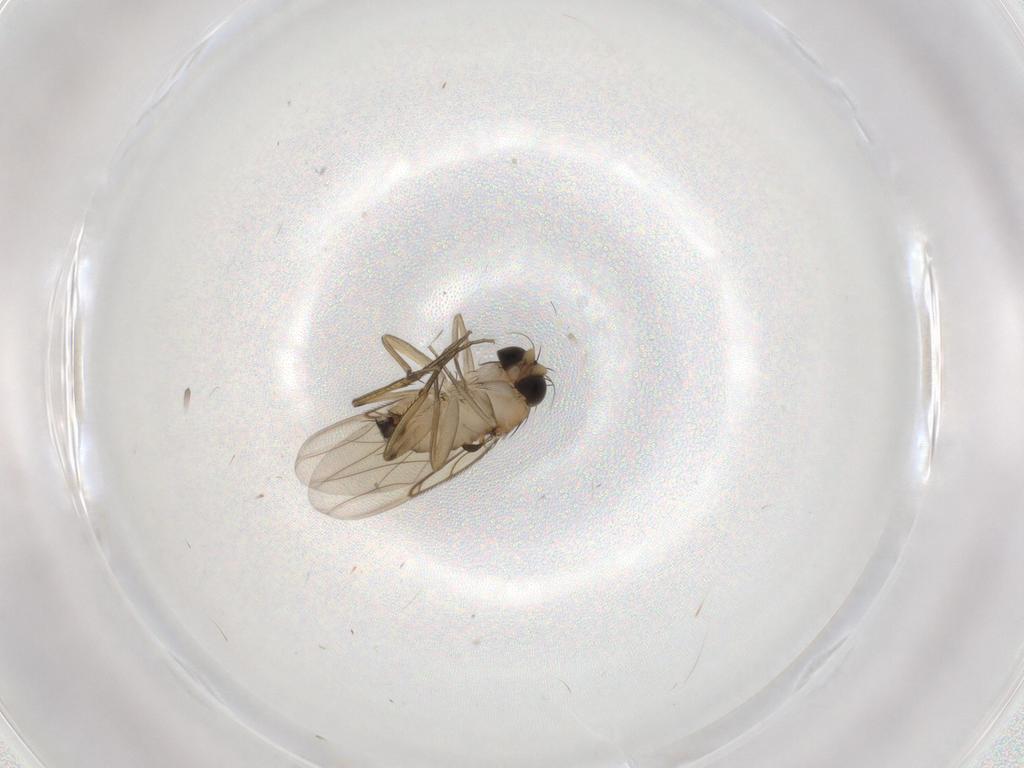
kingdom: Animalia
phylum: Arthropoda
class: Insecta
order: Diptera
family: Phoridae
